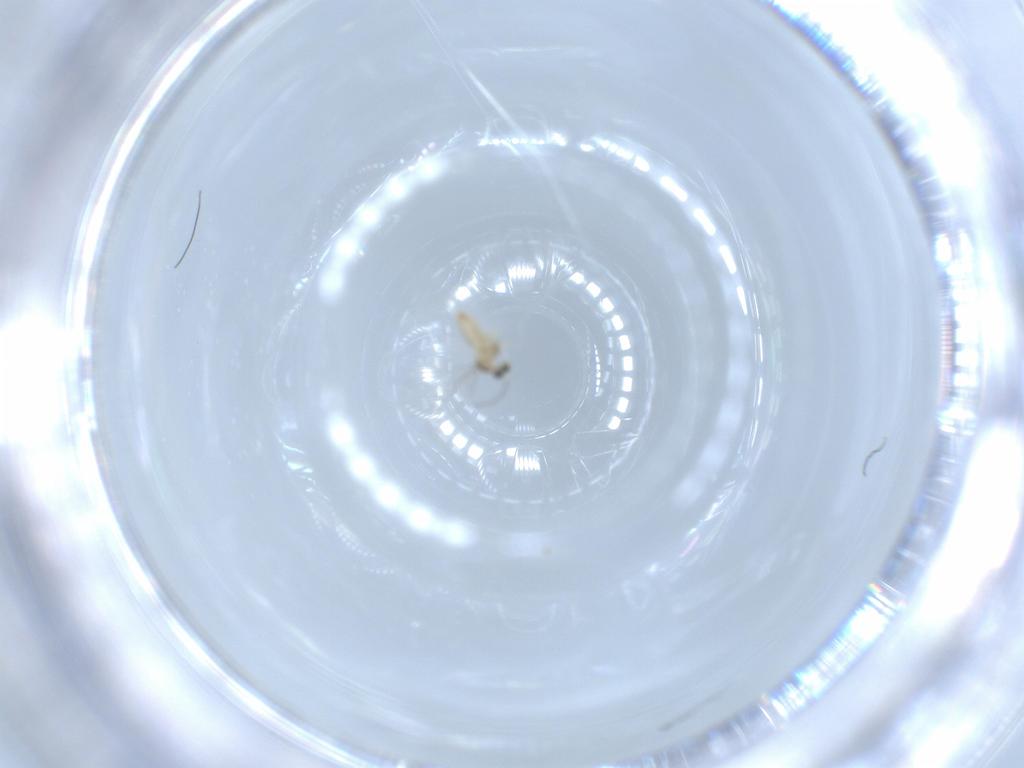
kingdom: Animalia
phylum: Arthropoda
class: Insecta
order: Diptera
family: Cecidomyiidae
